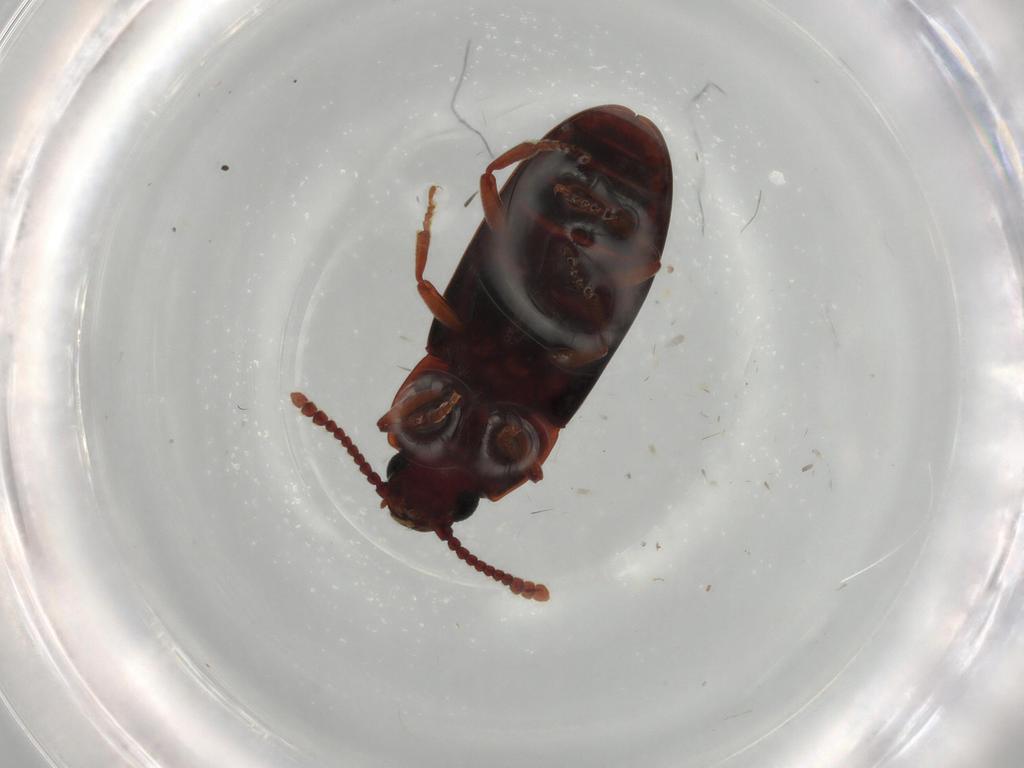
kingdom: Animalia
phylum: Arthropoda
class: Insecta
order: Coleoptera
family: Erotylidae
